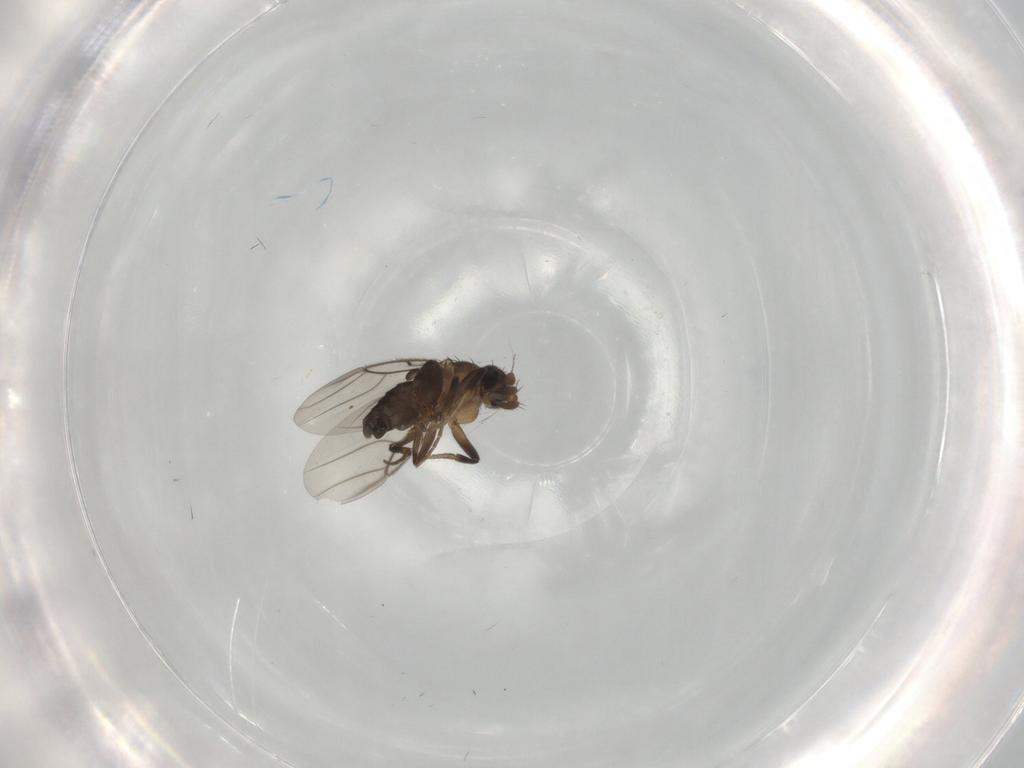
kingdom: Animalia
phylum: Arthropoda
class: Insecta
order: Diptera
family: Cecidomyiidae
